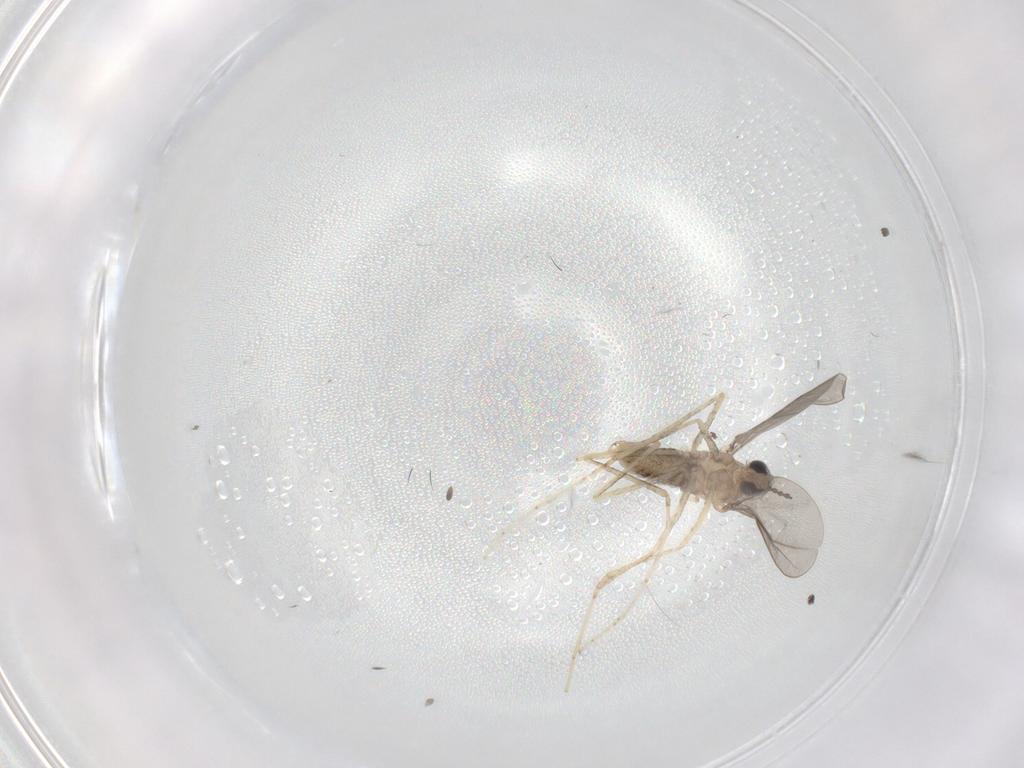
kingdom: Animalia
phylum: Arthropoda
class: Insecta
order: Diptera
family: Cecidomyiidae
